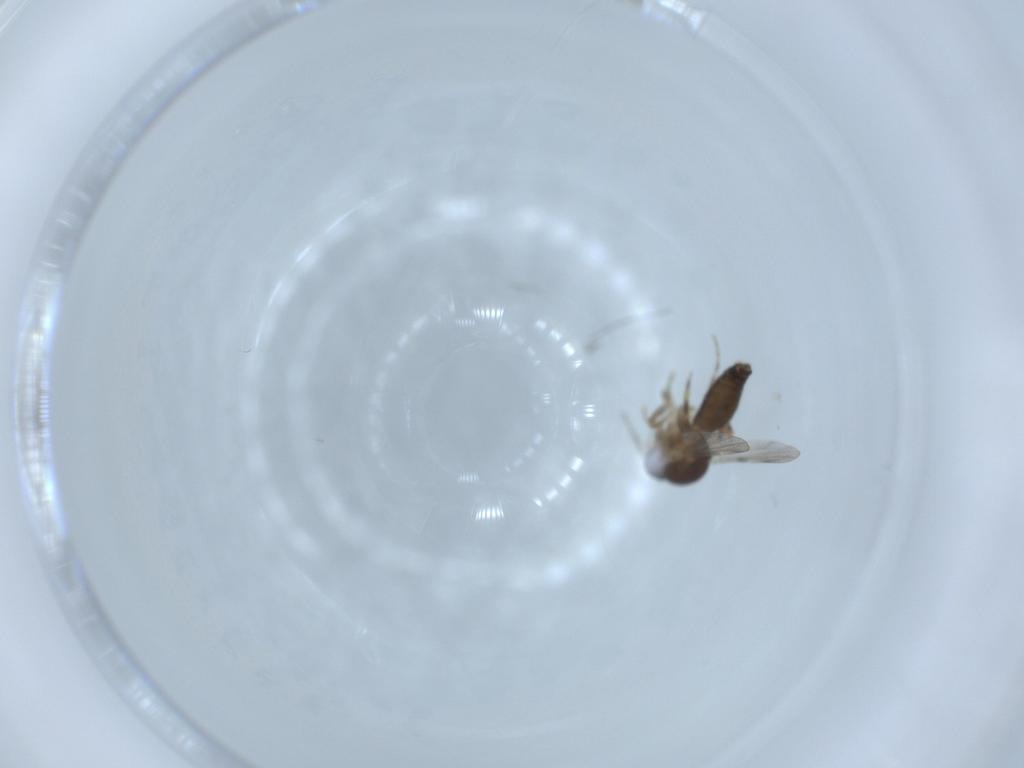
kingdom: Animalia
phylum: Arthropoda
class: Insecta
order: Diptera
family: Ceratopogonidae
